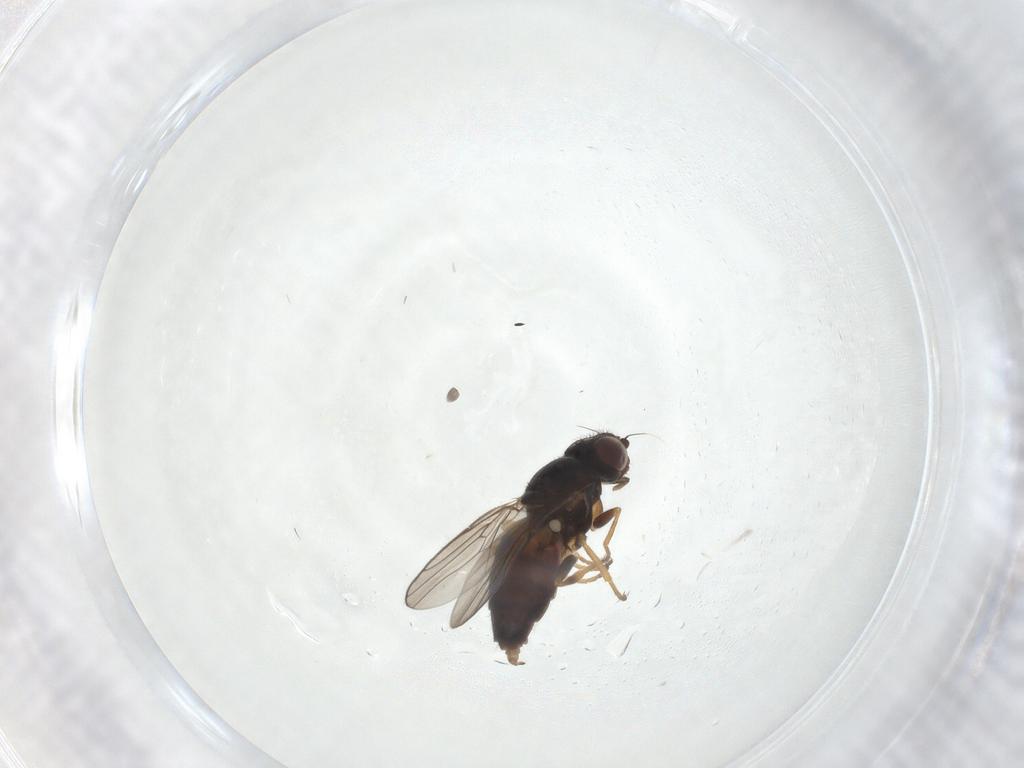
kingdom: Animalia
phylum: Arthropoda
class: Insecta
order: Diptera
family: Chloropidae
